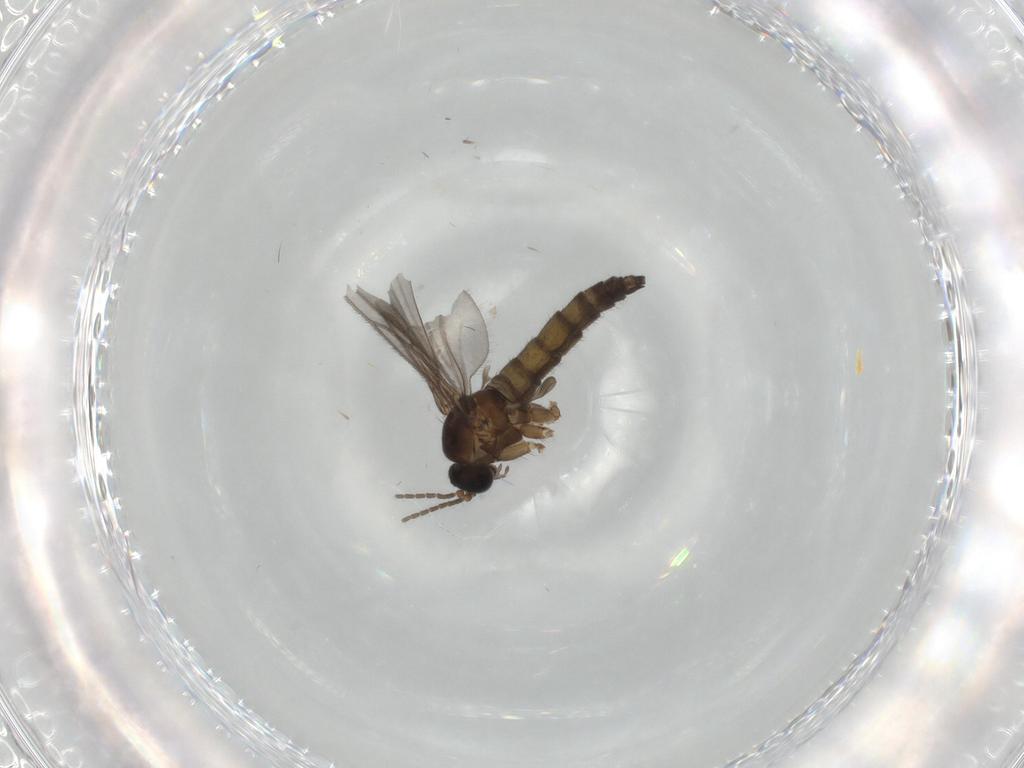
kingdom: Animalia
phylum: Arthropoda
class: Insecta
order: Diptera
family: Sciaridae
